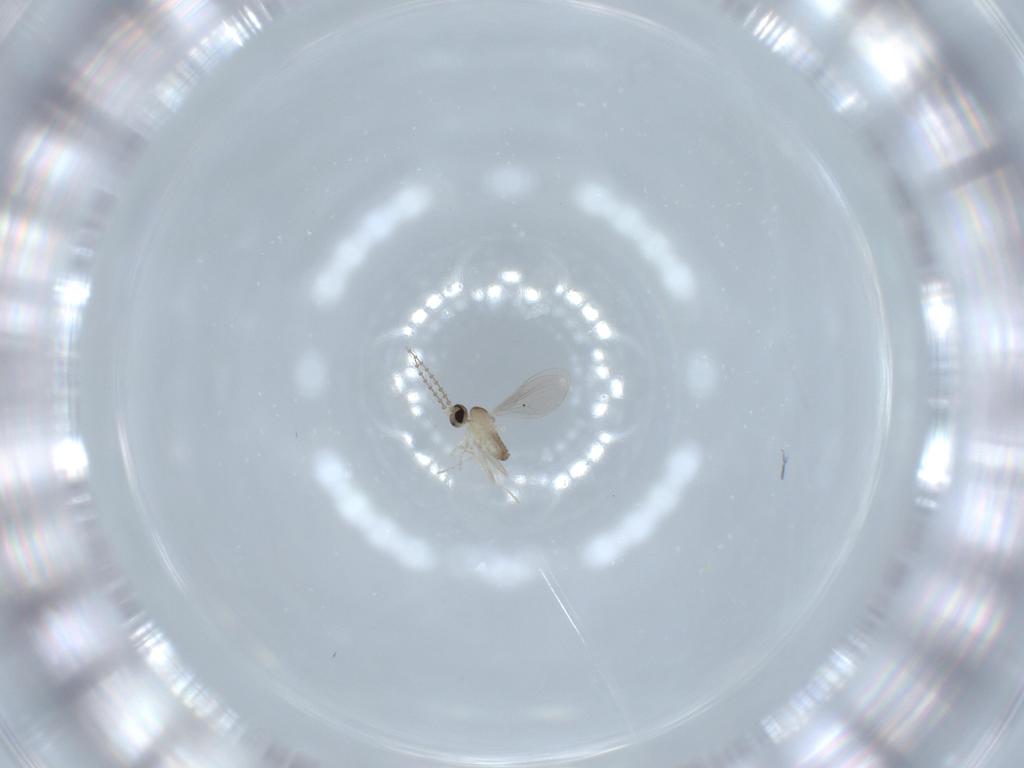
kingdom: Animalia
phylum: Arthropoda
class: Insecta
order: Diptera
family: Cecidomyiidae
